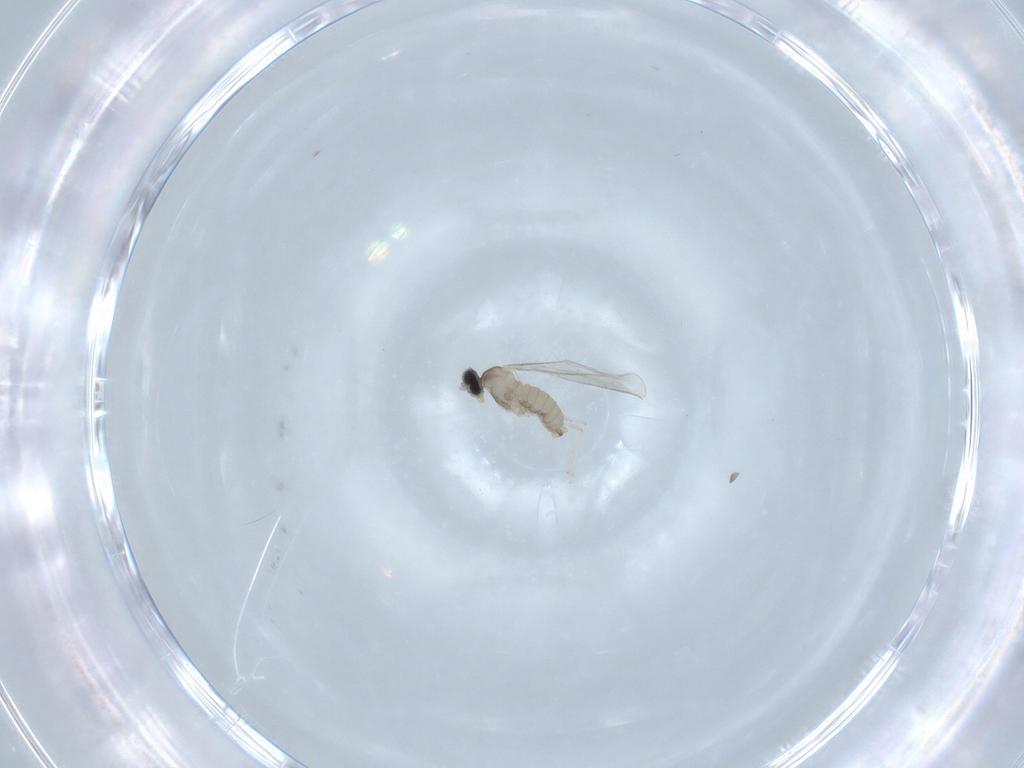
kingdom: Animalia
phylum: Arthropoda
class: Insecta
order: Diptera
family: Cecidomyiidae
